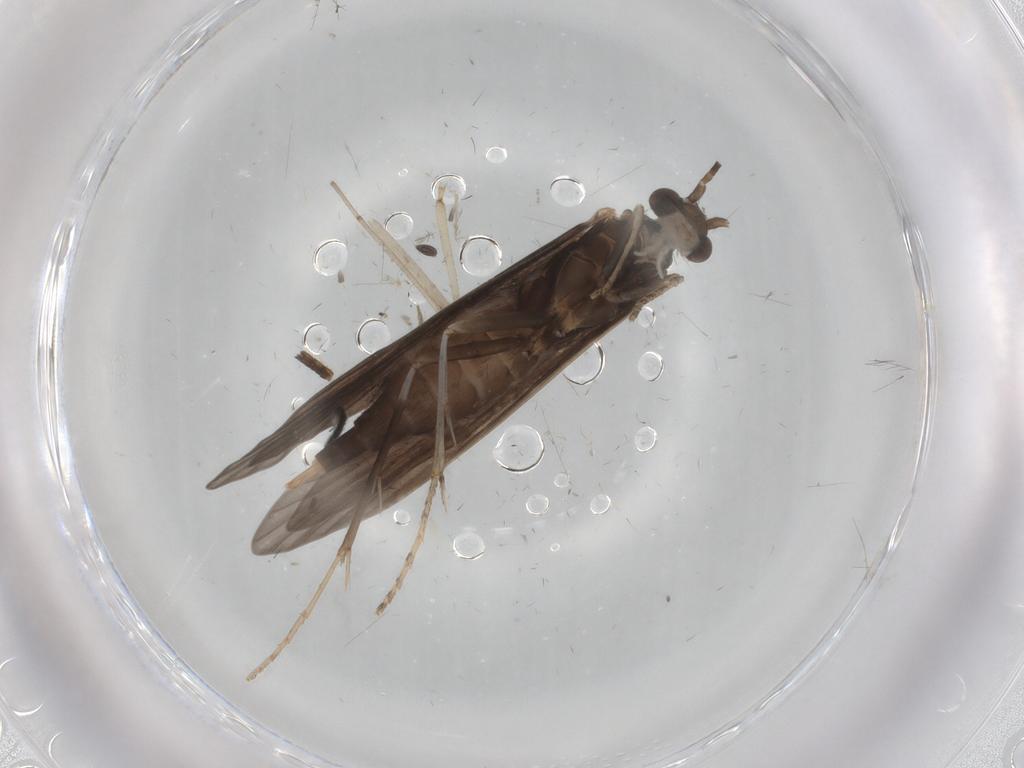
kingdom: Animalia
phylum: Arthropoda
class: Insecta
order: Trichoptera
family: Xiphocentronidae
